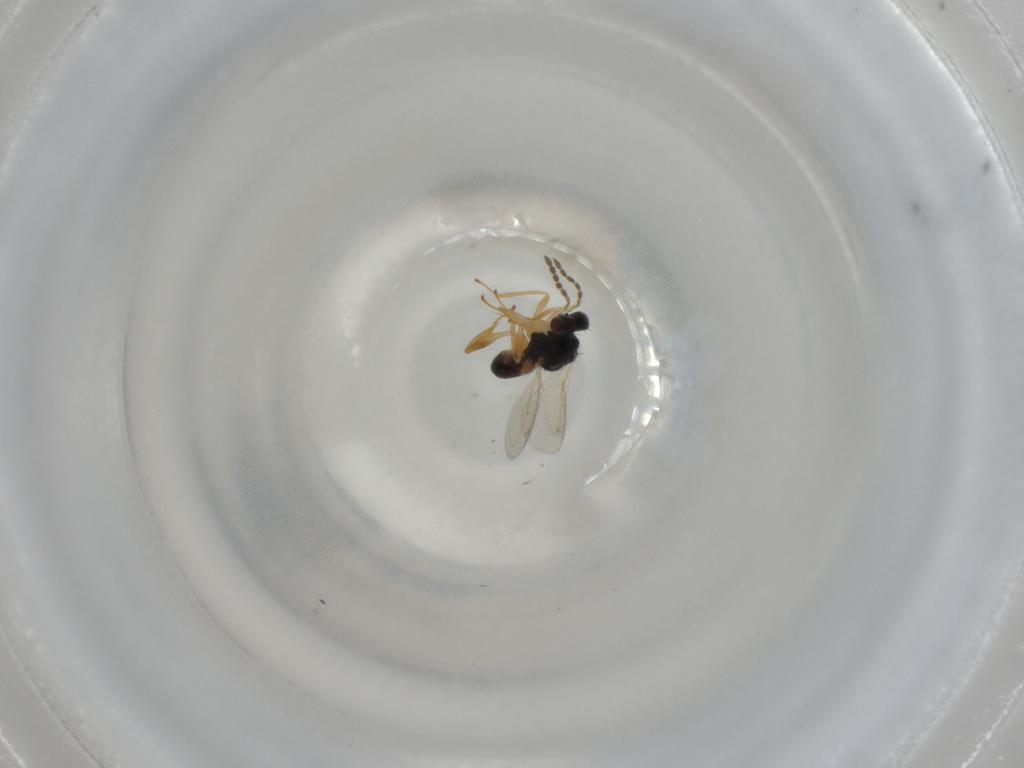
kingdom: Animalia
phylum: Arthropoda
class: Insecta
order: Hymenoptera
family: Eulophidae
